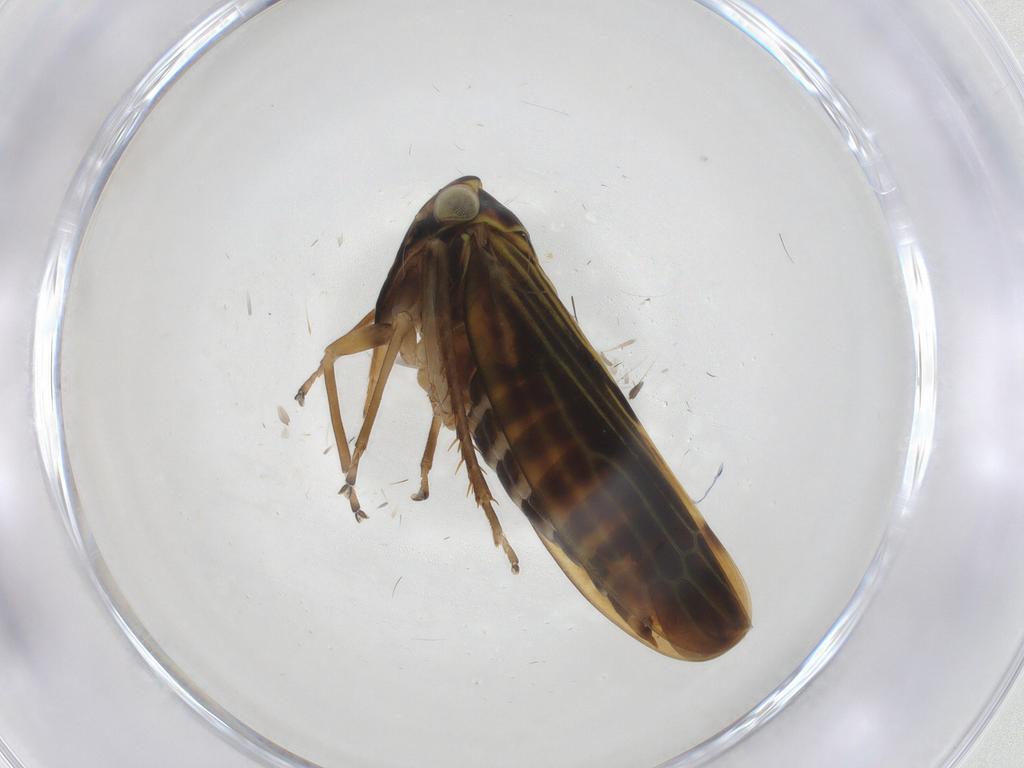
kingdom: Animalia
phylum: Arthropoda
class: Insecta
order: Hemiptera
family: Cicadellidae
